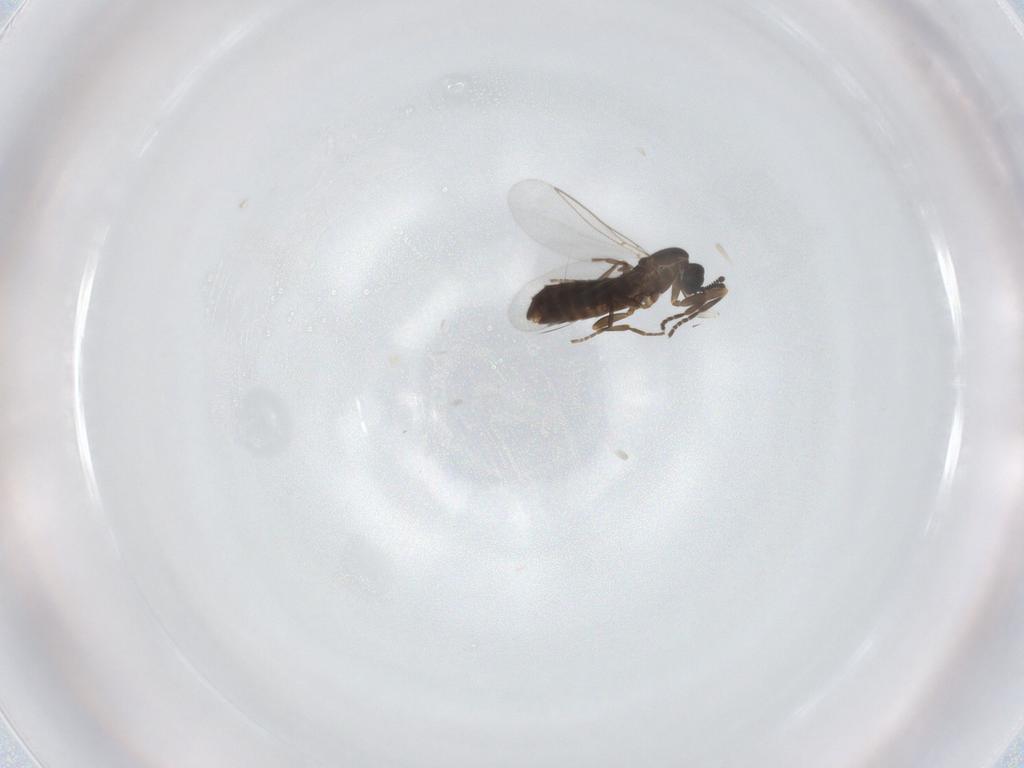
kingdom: Animalia
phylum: Arthropoda
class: Insecta
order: Diptera
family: Scatopsidae
